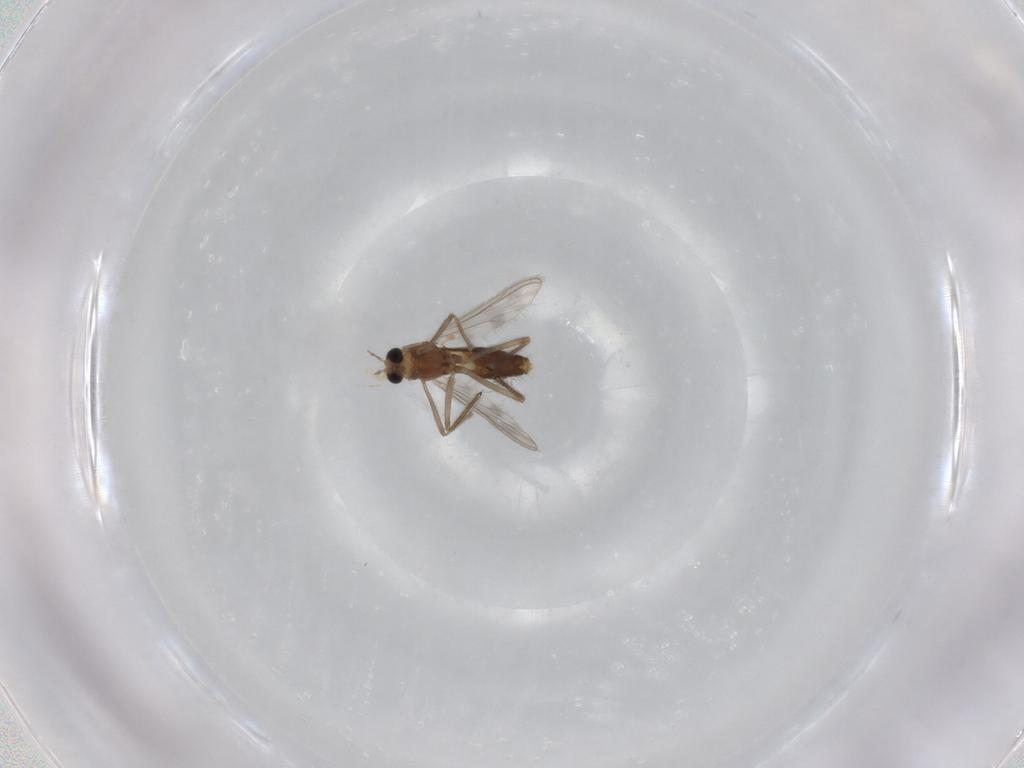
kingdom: Animalia
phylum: Arthropoda
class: Insecta
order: Diptera
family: Chironomidae
